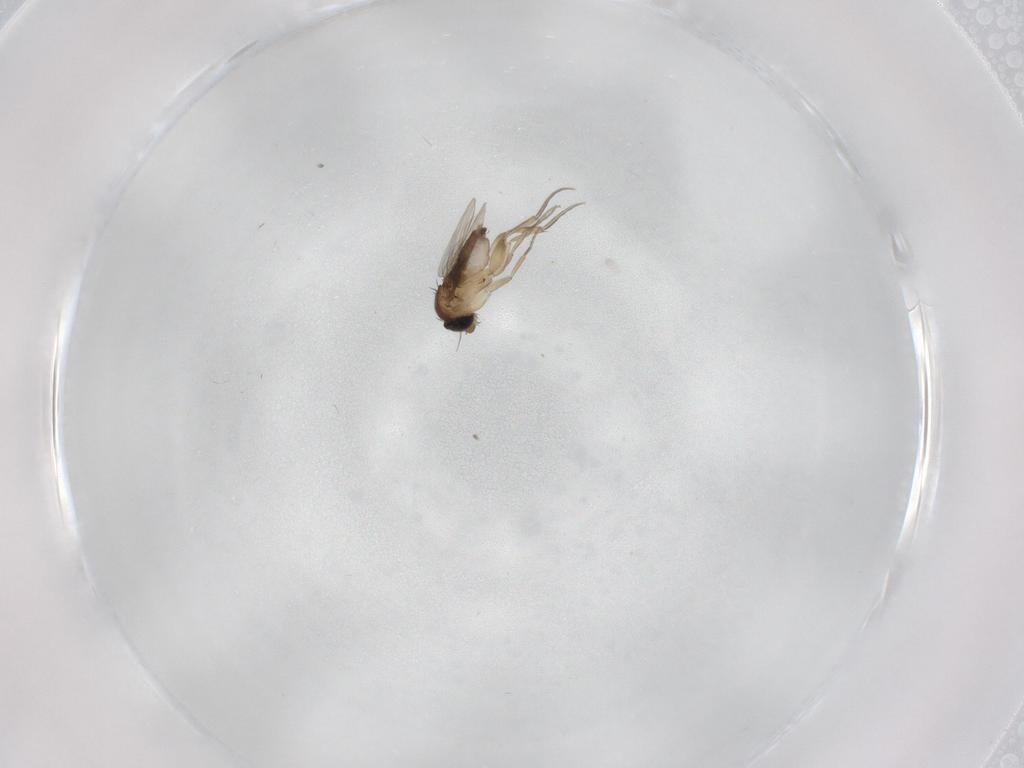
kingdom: Animalia
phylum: Arthropoda
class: Insecta
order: Diptera
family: Phoridae
